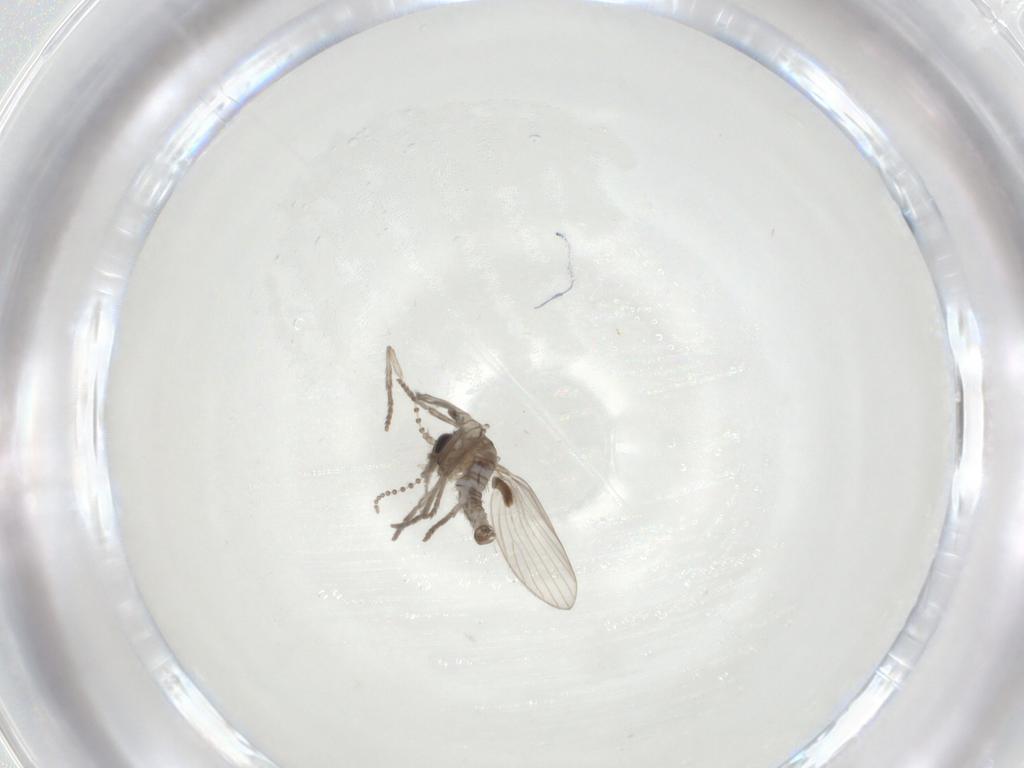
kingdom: Animalia
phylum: Arthropoda
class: Insecta
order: Diptera
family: Psychodidae
